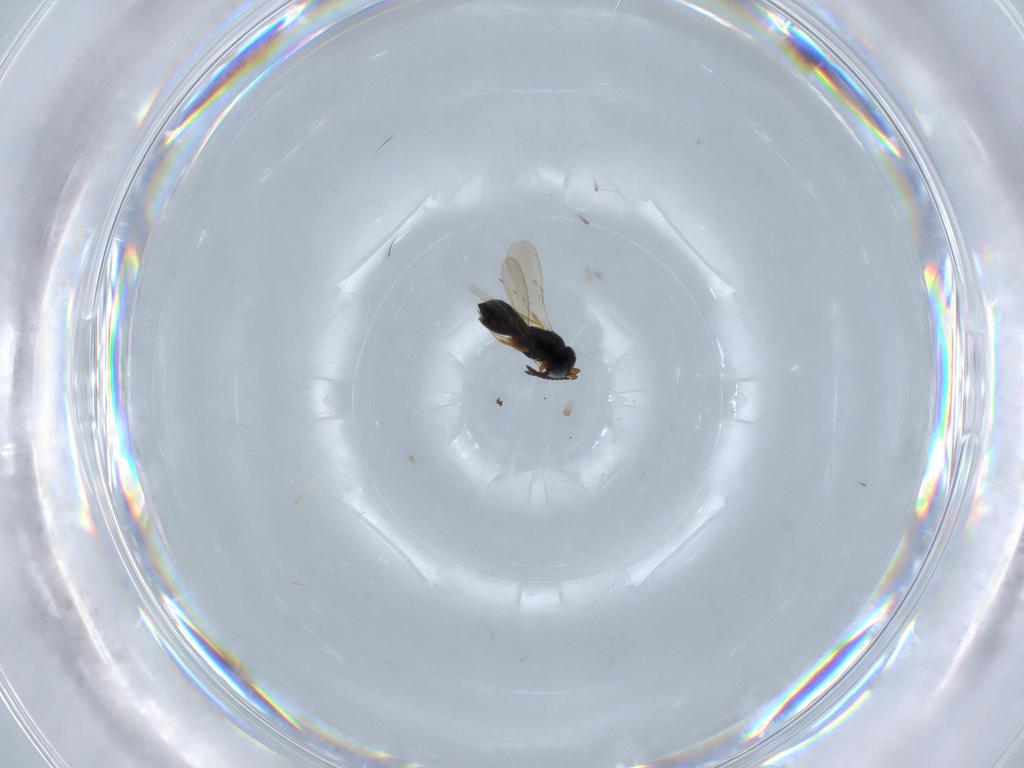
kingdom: Animalia
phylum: Arthropoda
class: Insecta
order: Hymenoptera
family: Scelionidae
